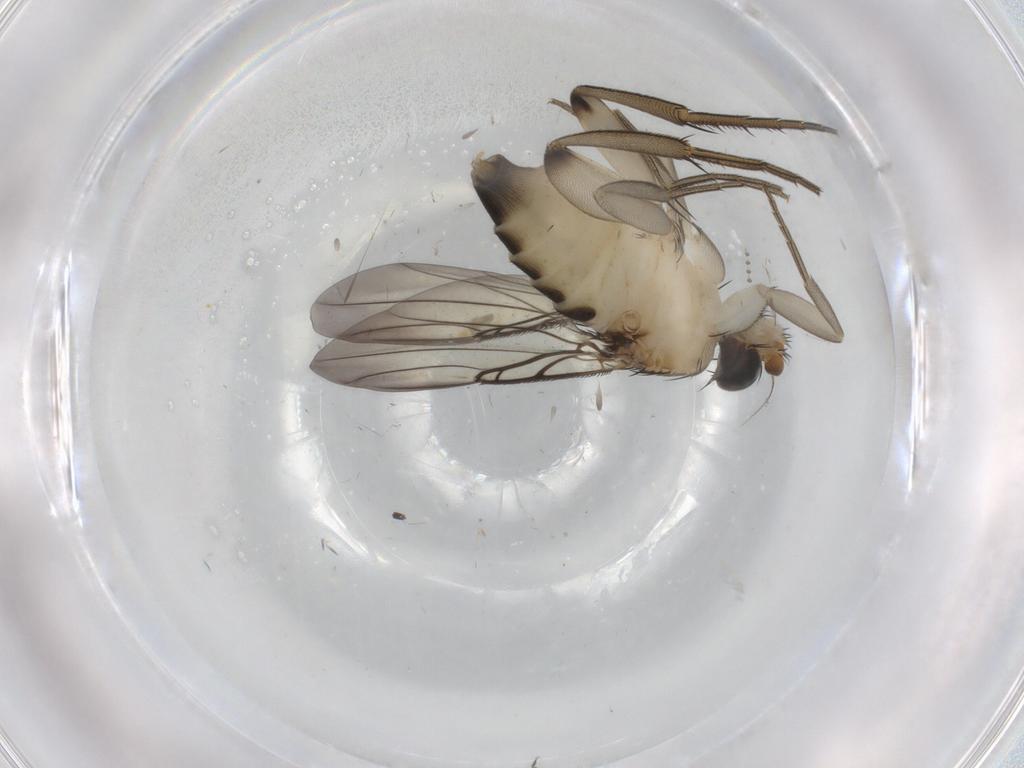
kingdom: Animalia
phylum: Arthropoda
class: Insecta
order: Diptera
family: Phoridae
